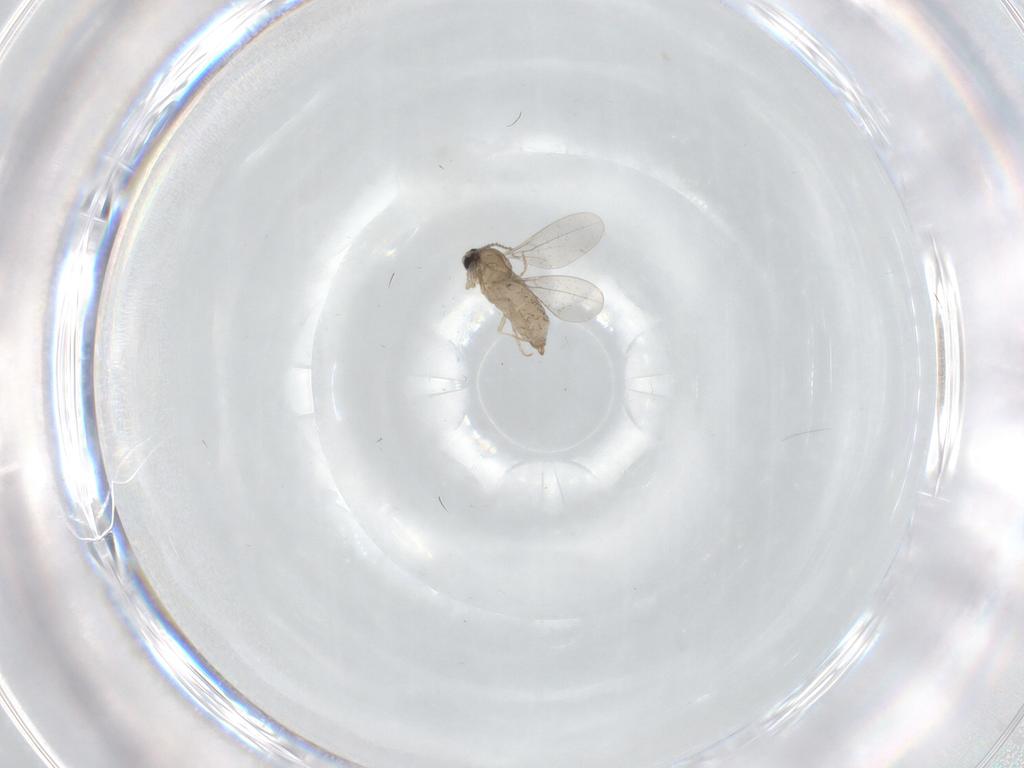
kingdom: Animalia
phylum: Arthropoda
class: Insecta
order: Diptera
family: Cecidomyiidae
